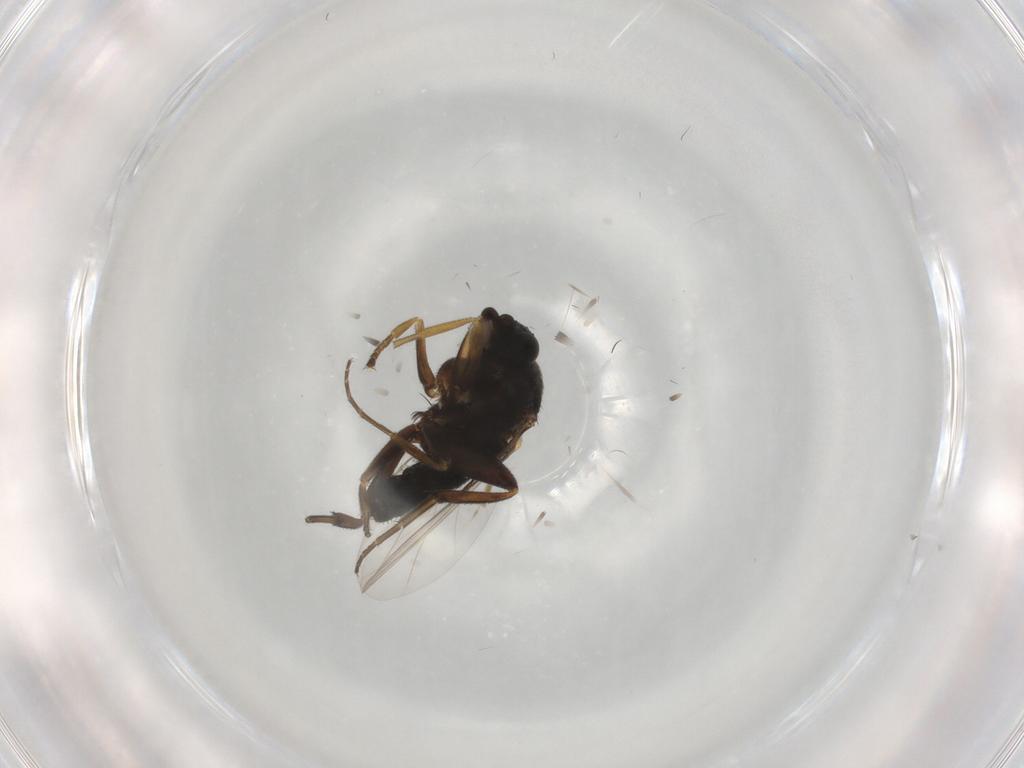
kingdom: Animalia
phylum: Arthropoda
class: Insecta
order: Diptera
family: Phoridae
